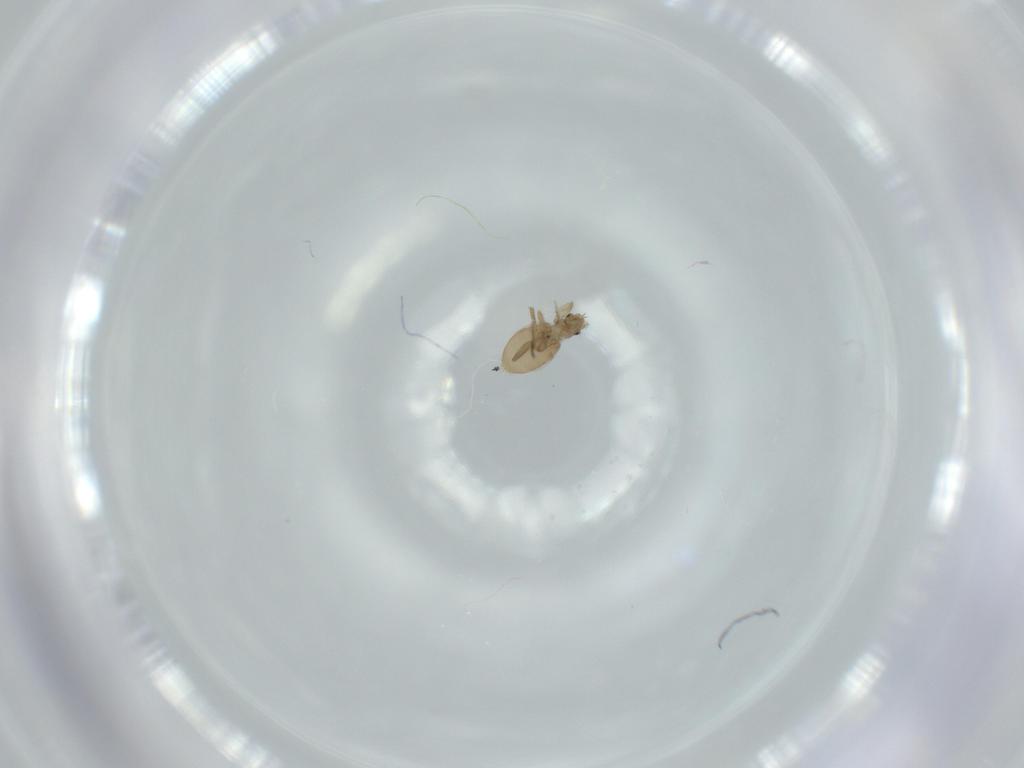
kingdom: Animalia
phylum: Arthropoda
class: Insecta
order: Diptera
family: Phoridae
